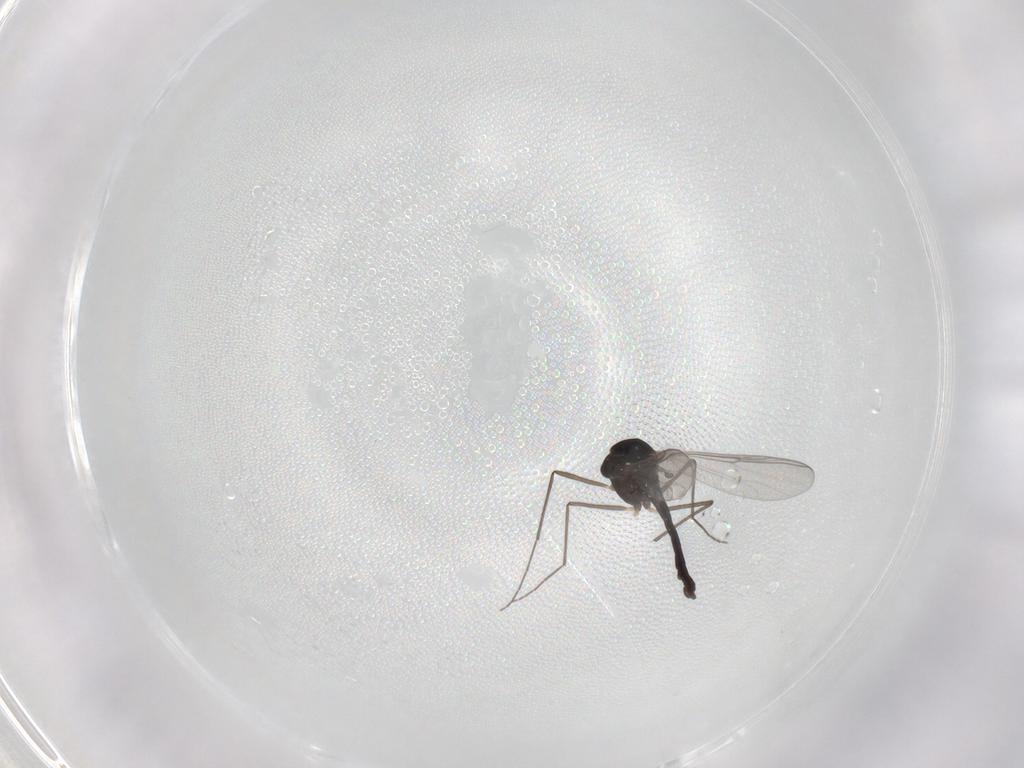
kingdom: Animalia
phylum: Arthropoda
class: Insecta
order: Diptera
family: Chironomidae
